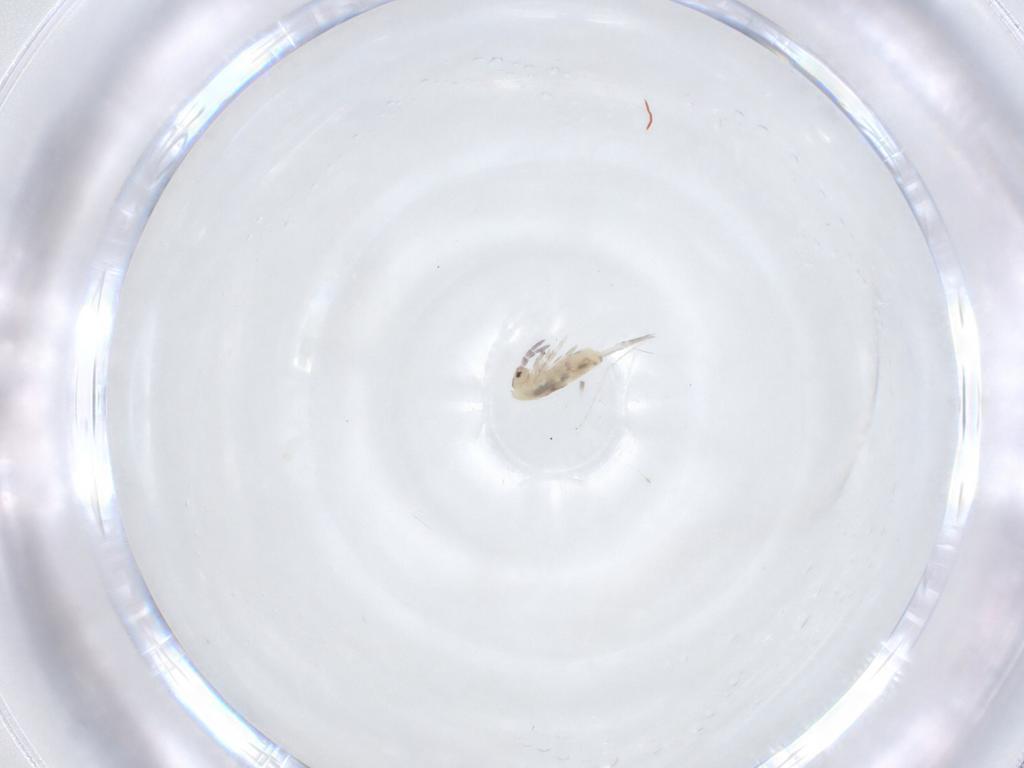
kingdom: Animalia
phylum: Arthropoda
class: Collembola
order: Entomobryomorpha
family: Entomobryidae
